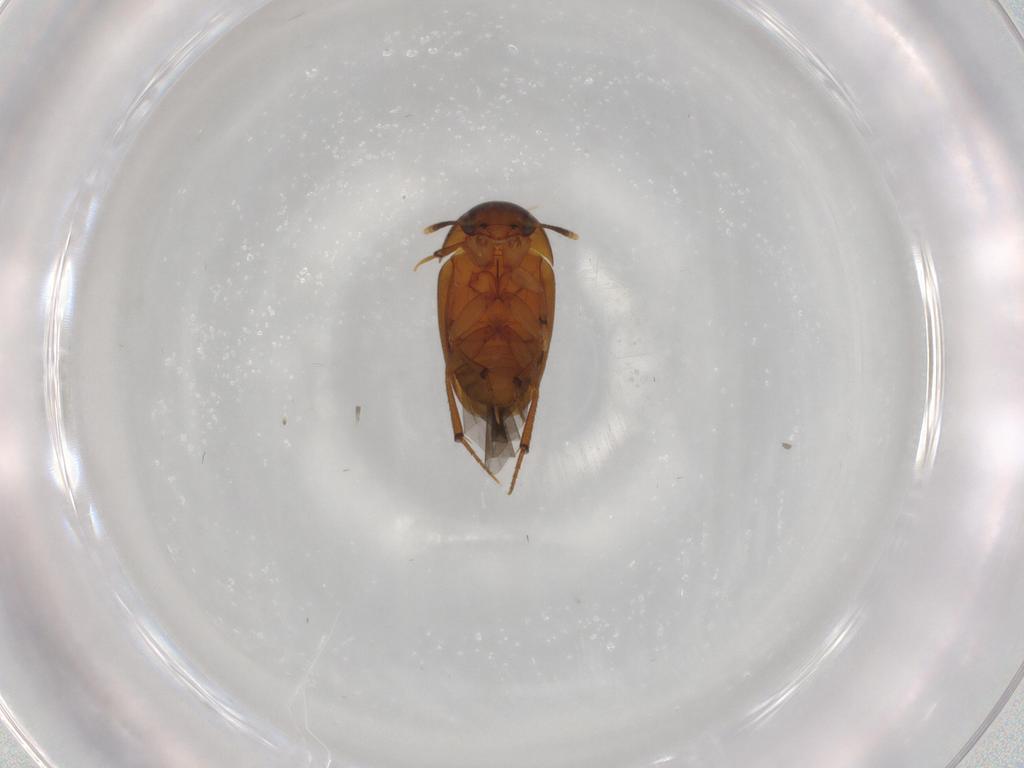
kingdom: Animalia
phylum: Arthropoda
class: Insecta
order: Coleoptera
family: Leiodidae
